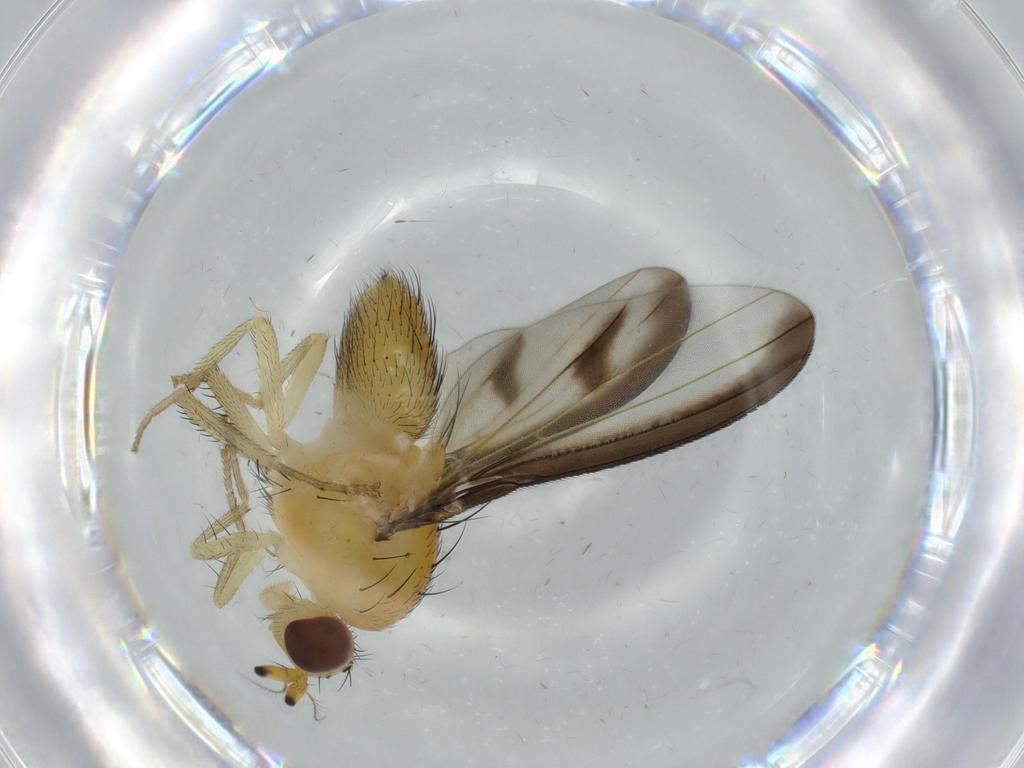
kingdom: Animalia
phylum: Arthropoda
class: Insecta
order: Diptera
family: Lauxaniidae
